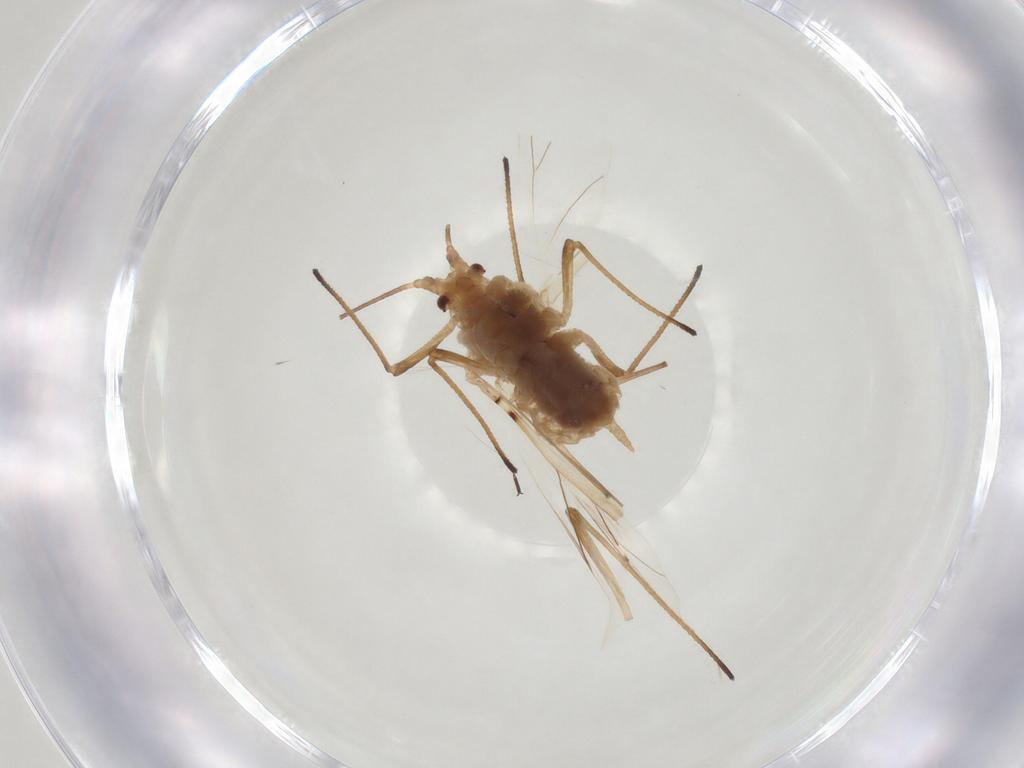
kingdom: Animalia
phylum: Arthropoda
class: Insecta
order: Hemiptera
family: Aphididae
